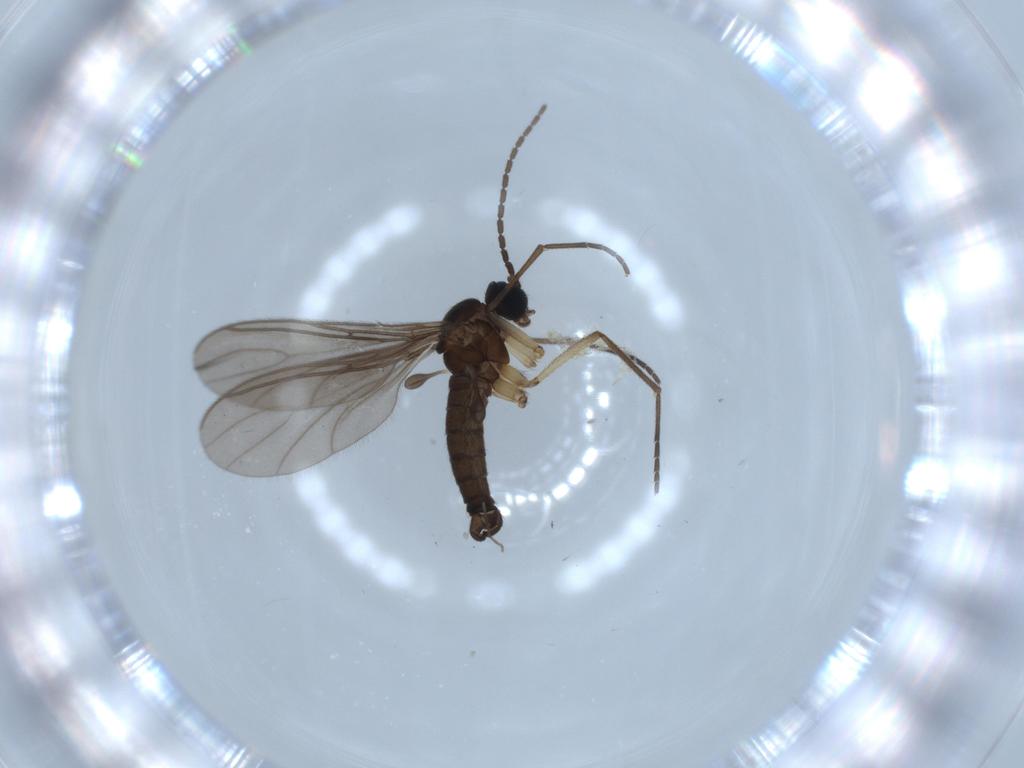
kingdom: Animalia
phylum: Arthropoda
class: Insecta
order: Diptera
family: Sciaridae
